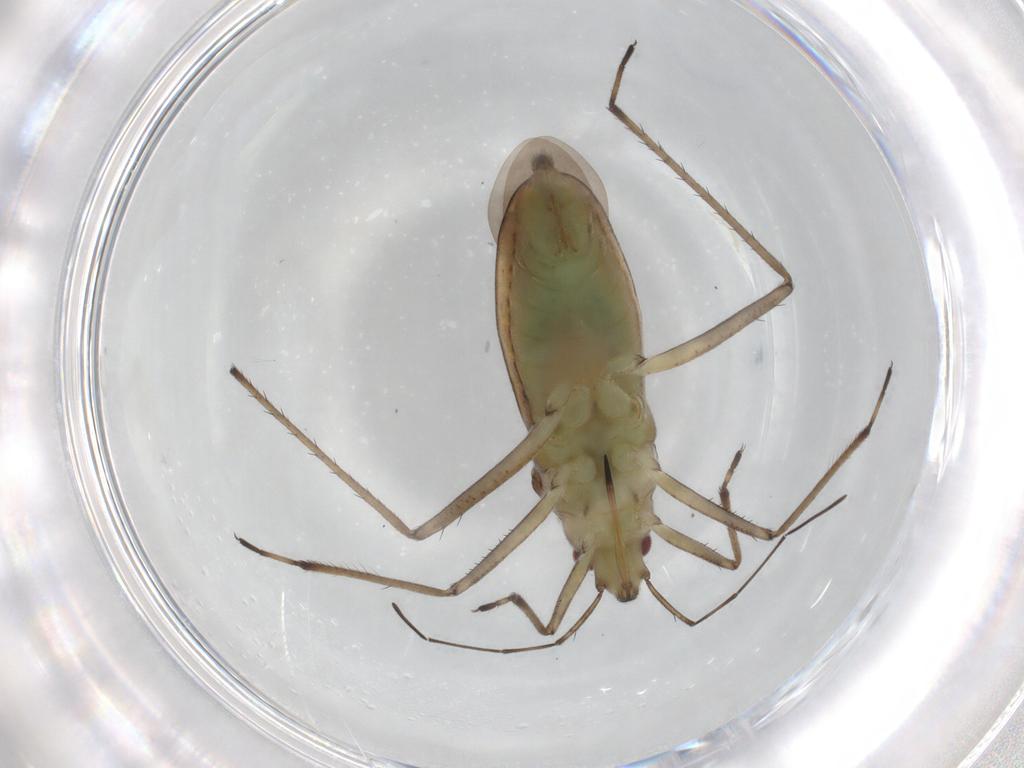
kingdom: Animalia
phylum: Arthropoda
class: Insecta
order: Hemiptera
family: Mesoveliidae
